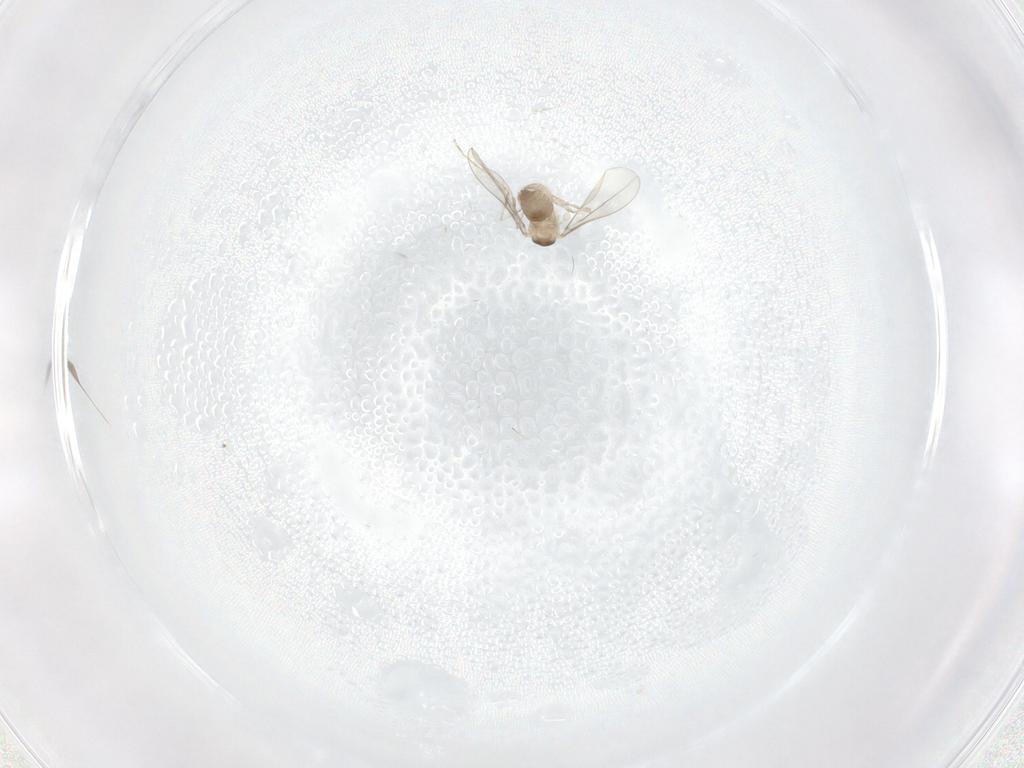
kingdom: Animalia
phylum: Arthropoda
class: Insecta
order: Diptera
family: Cecidomyiidae
